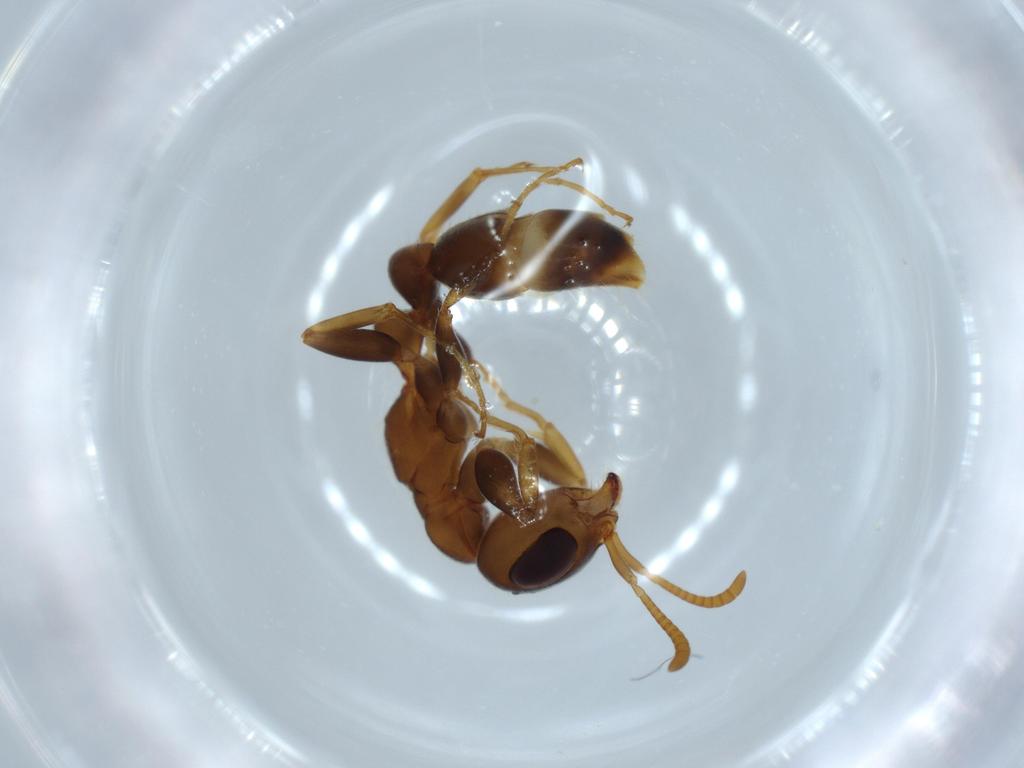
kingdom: Animalia
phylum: Arthropoda
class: Insecta
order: Hymenoptera
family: Formicidae
